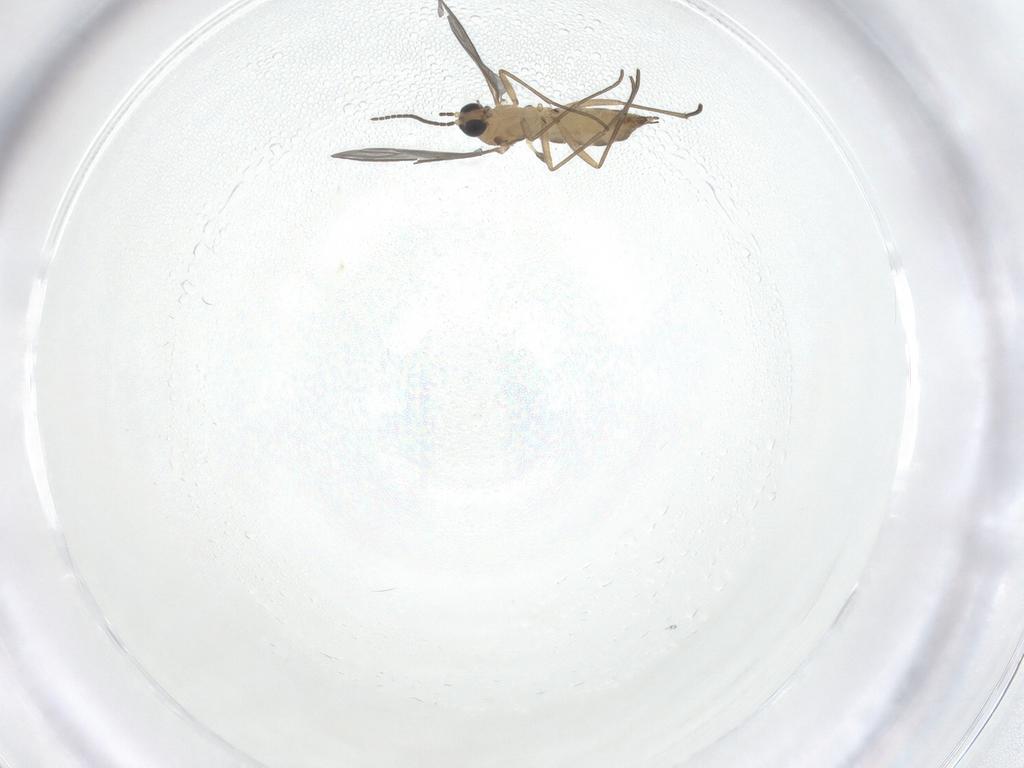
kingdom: Animalia
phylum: Arthropoda
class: Insecta
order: Diptera
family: Sciaridae
